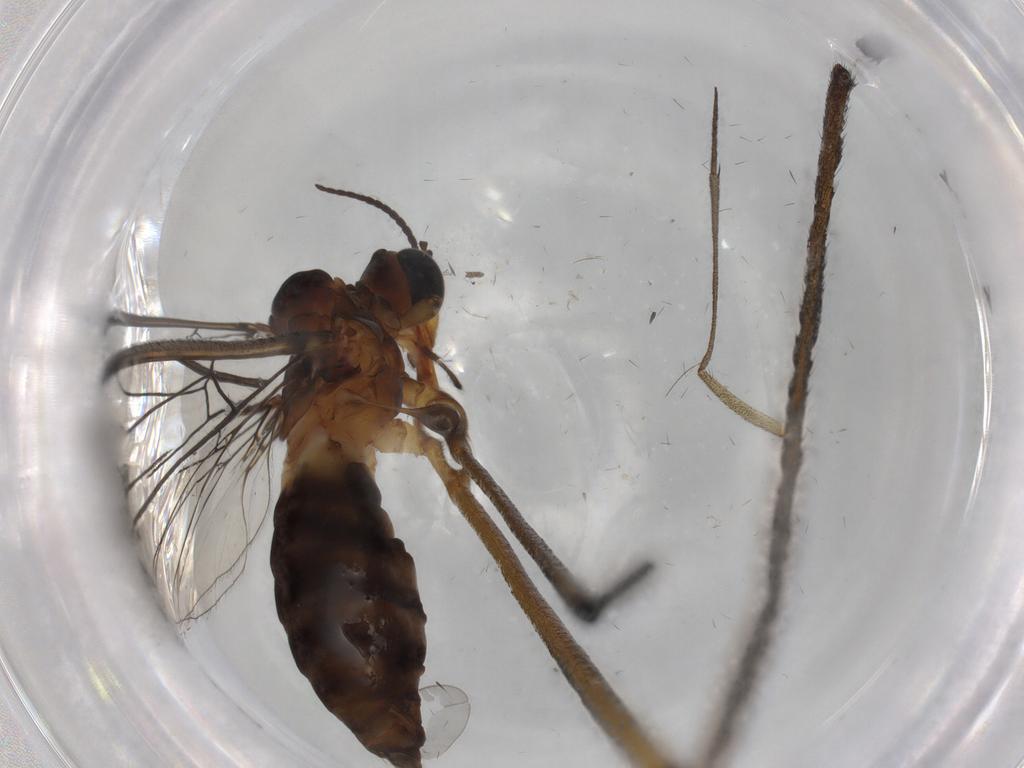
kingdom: Animalia
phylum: Arthropoda
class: Insecta
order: Diptera
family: Blephariceridae
